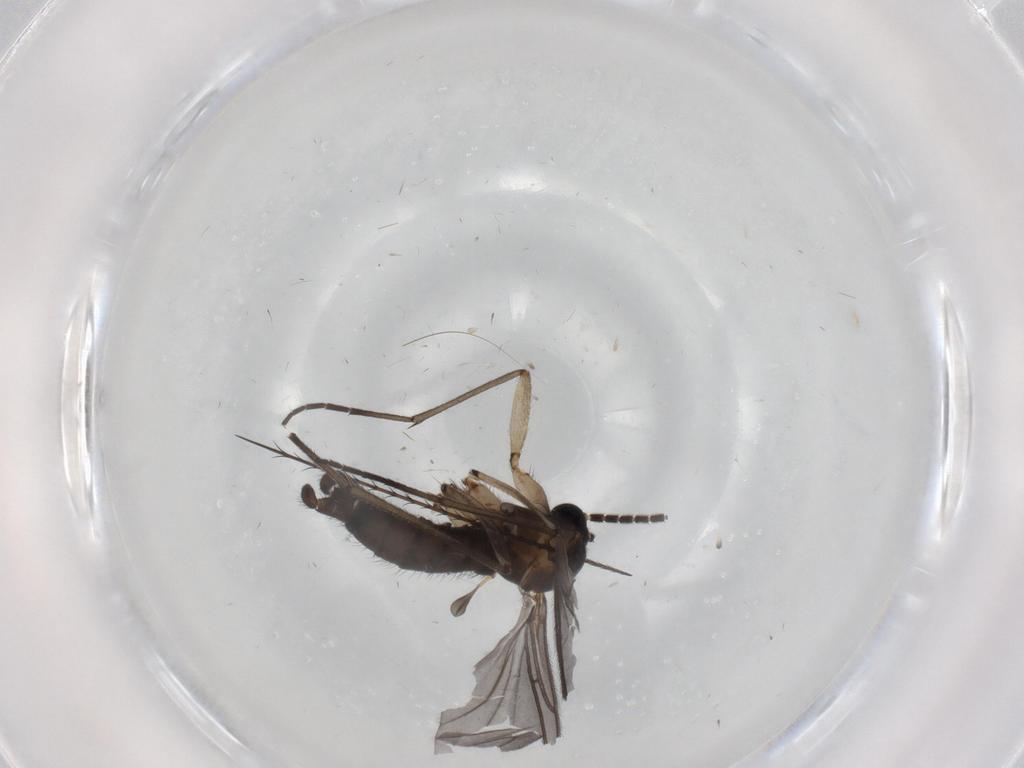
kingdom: Animalia
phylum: Arthropoda
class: Insecta
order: Diptera
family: Sciaridae
